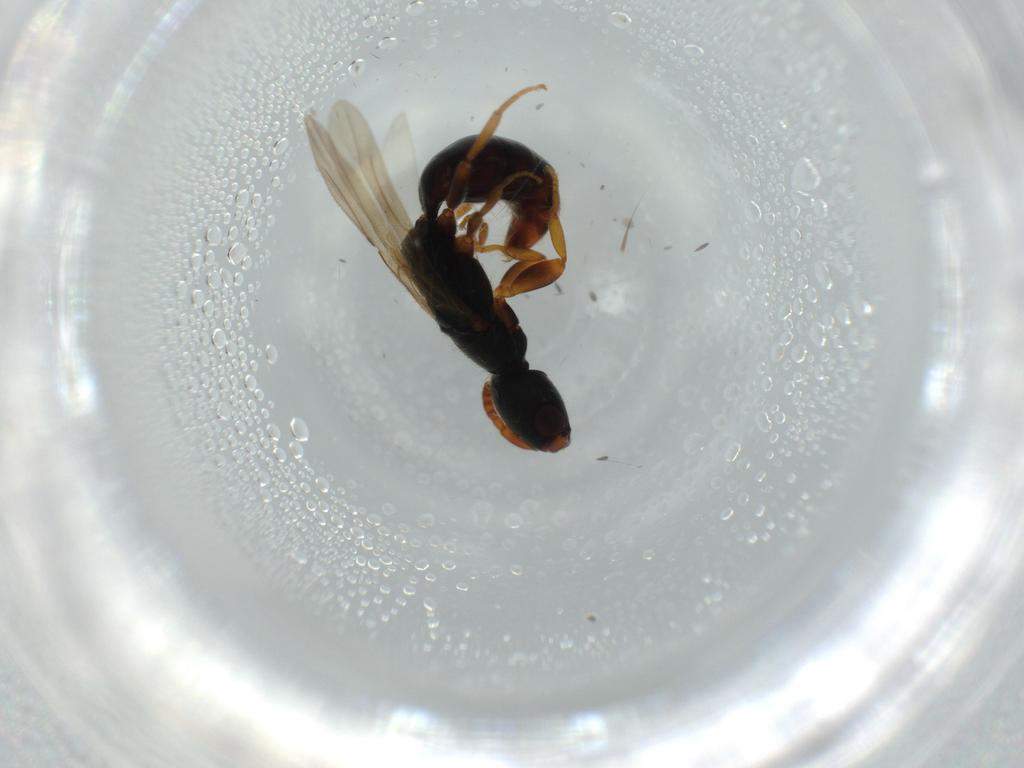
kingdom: Animalia
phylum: Arthropoda
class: Insecta
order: Hymenoptera
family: Bethylidae
